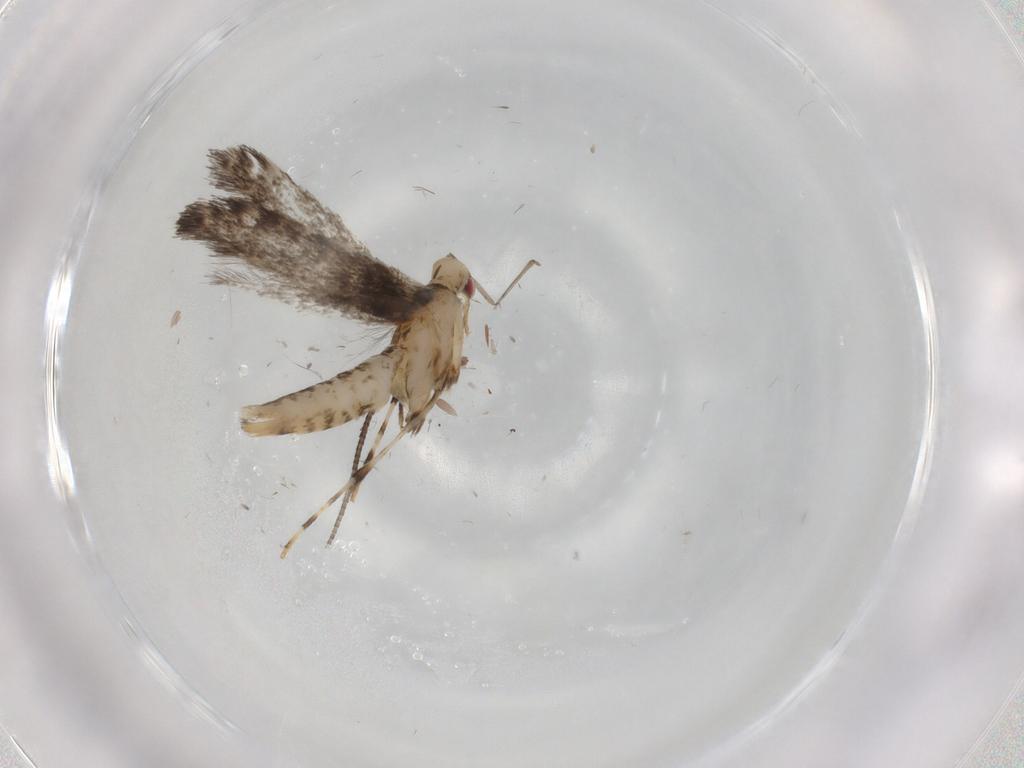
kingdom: Animalia
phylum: Arthropoda
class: Insecta
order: Lepidoptera
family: Gracillariidae
